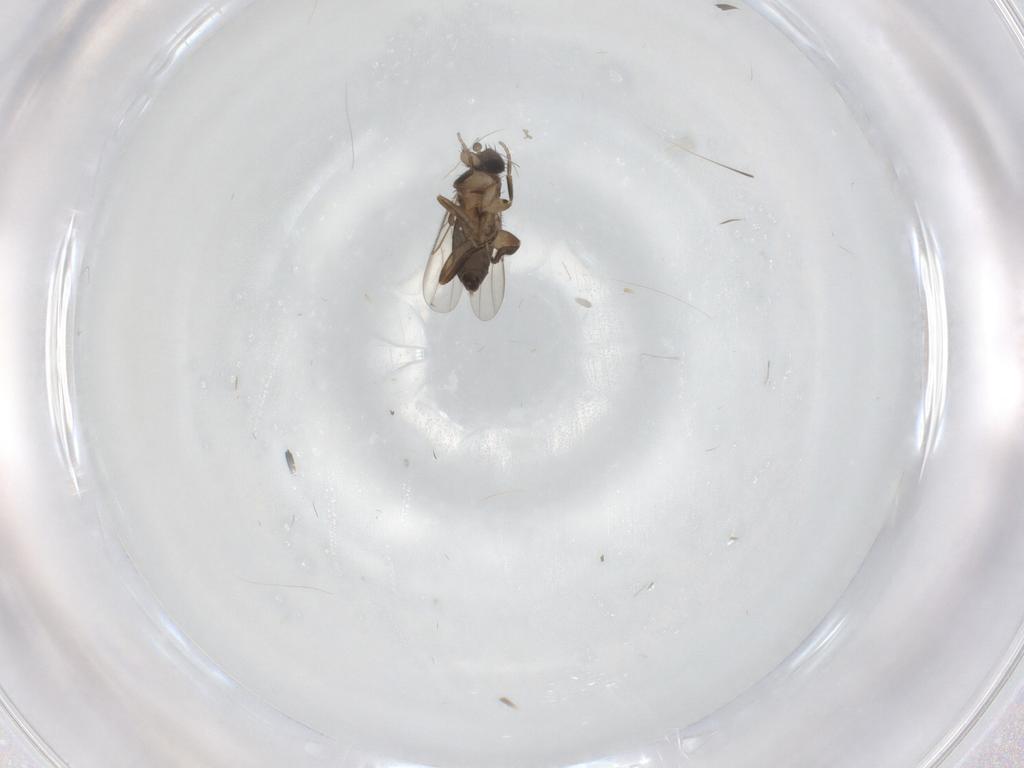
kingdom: Animalia
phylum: Arthropoda
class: Insecta
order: Diptera
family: Phoridae
